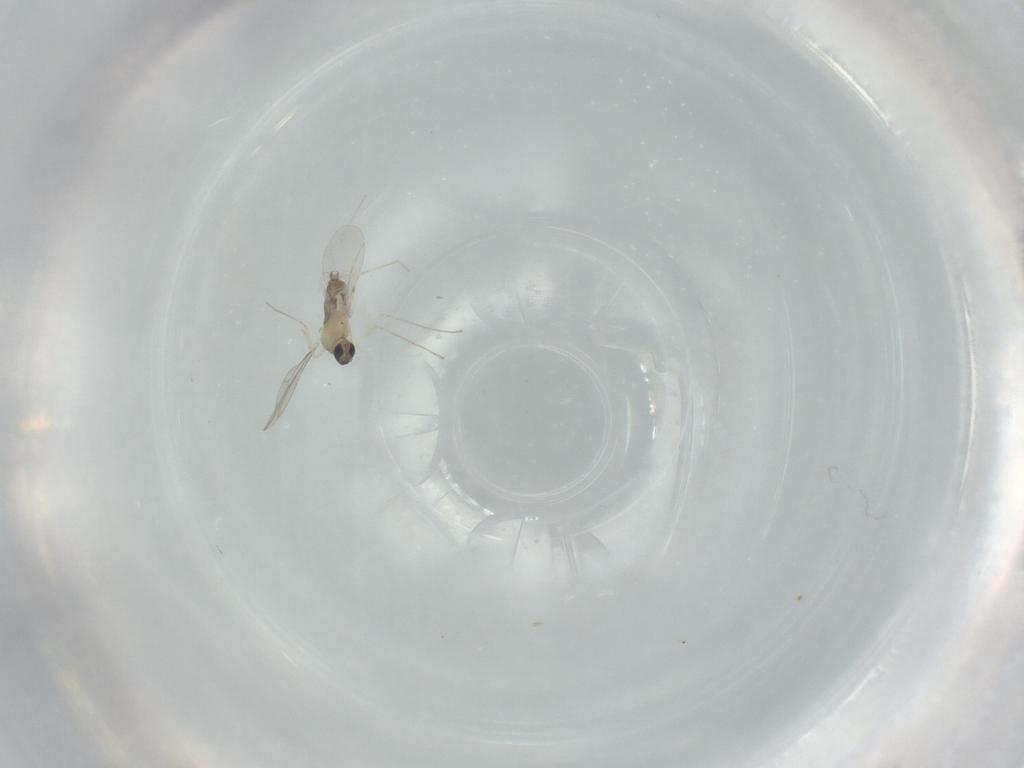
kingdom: Animalia
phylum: Arthropoda
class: Insecta
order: Diptera
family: Cecidomyiidae
